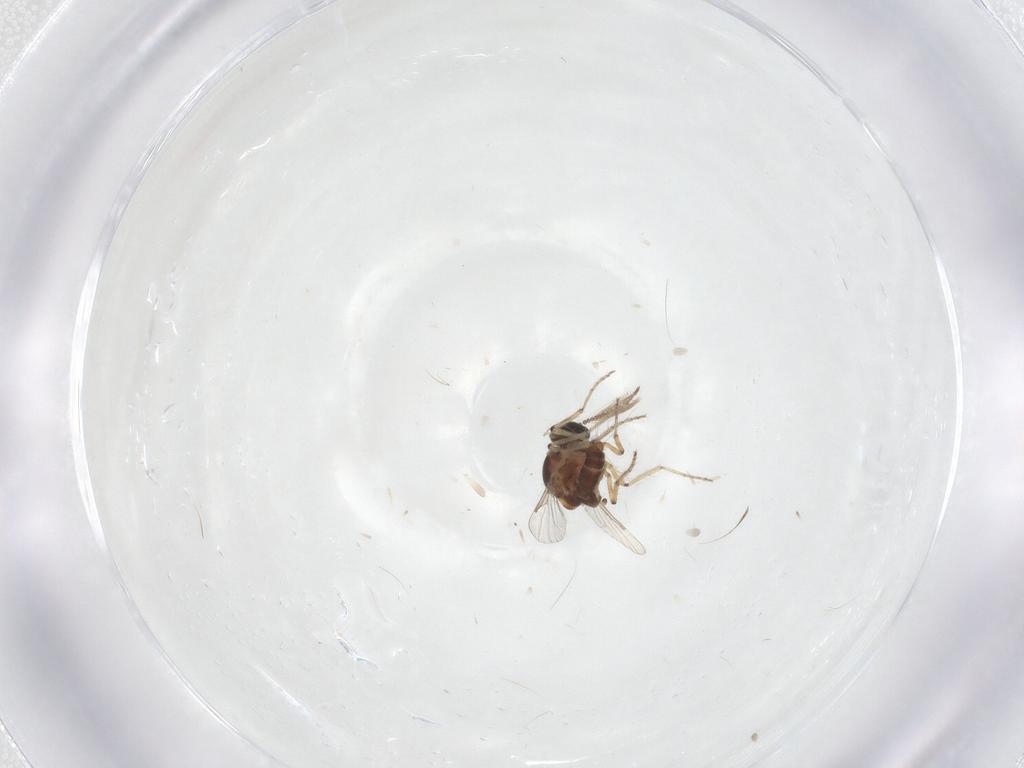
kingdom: Animalia
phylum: Arthropoda
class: Insecta
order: Diptera
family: Ceratopogonidae
